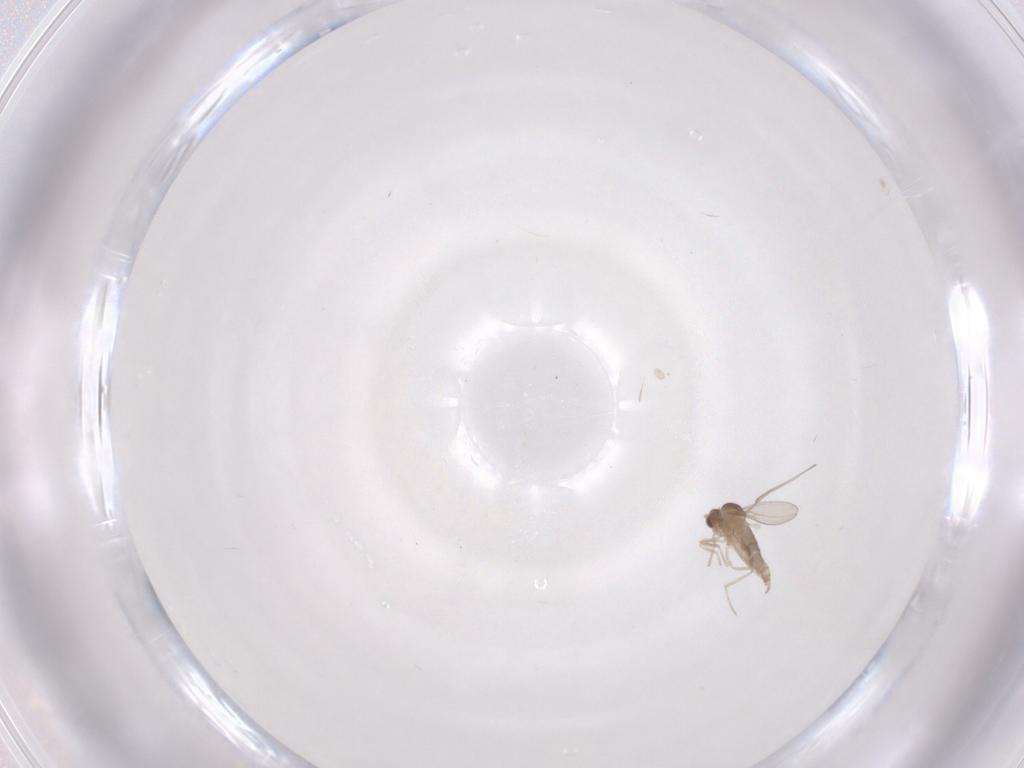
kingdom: Animalia
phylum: Arthropoda
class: Insecta
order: Diptera
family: Cecidomyiidae
